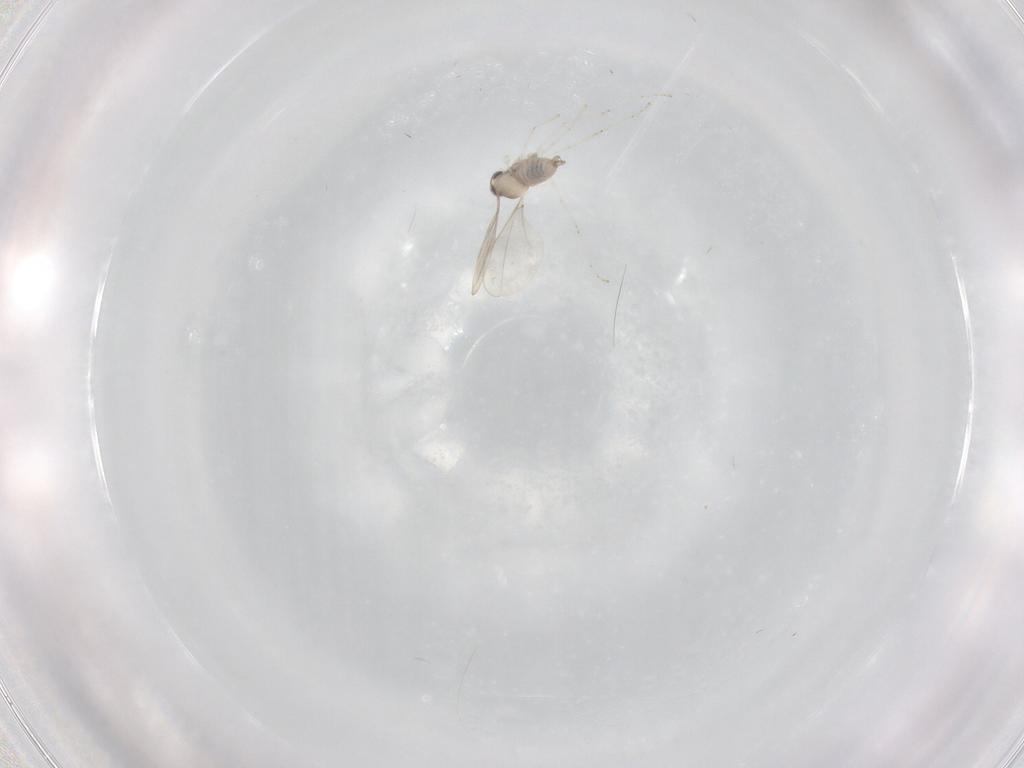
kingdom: Animalia
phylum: Arthropoda
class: Insecta
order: Diptera
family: Cecidomyiidae
